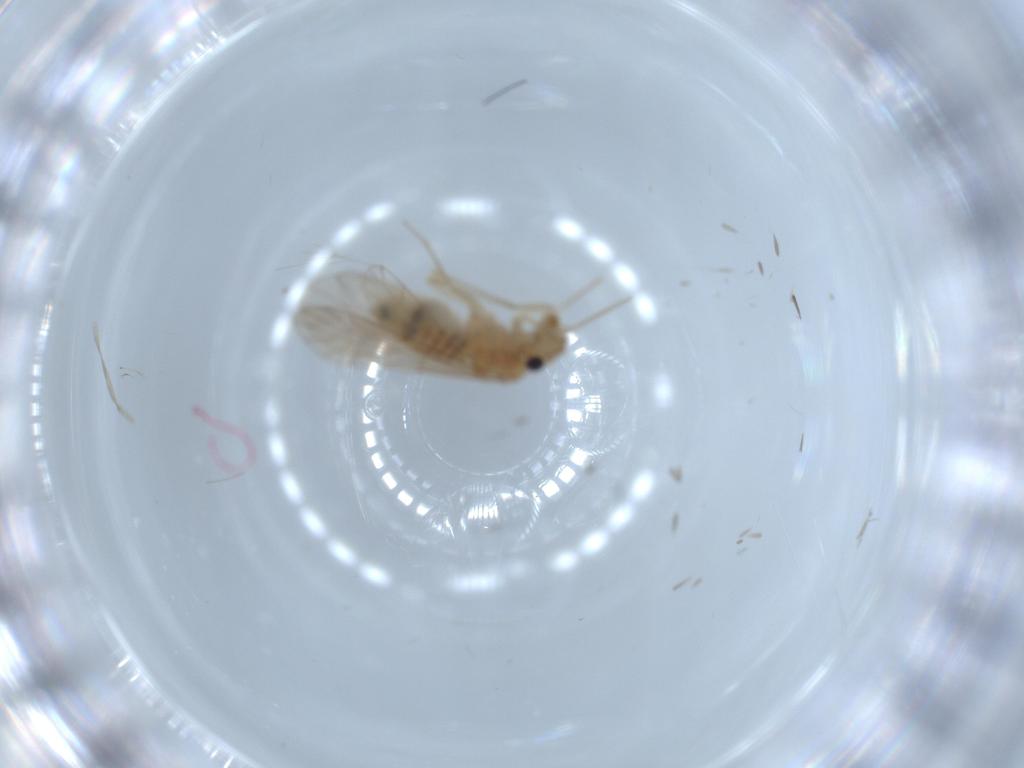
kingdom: Animalia
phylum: Arthropoda
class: Insecta
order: Psocodea
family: Lachesillidae
